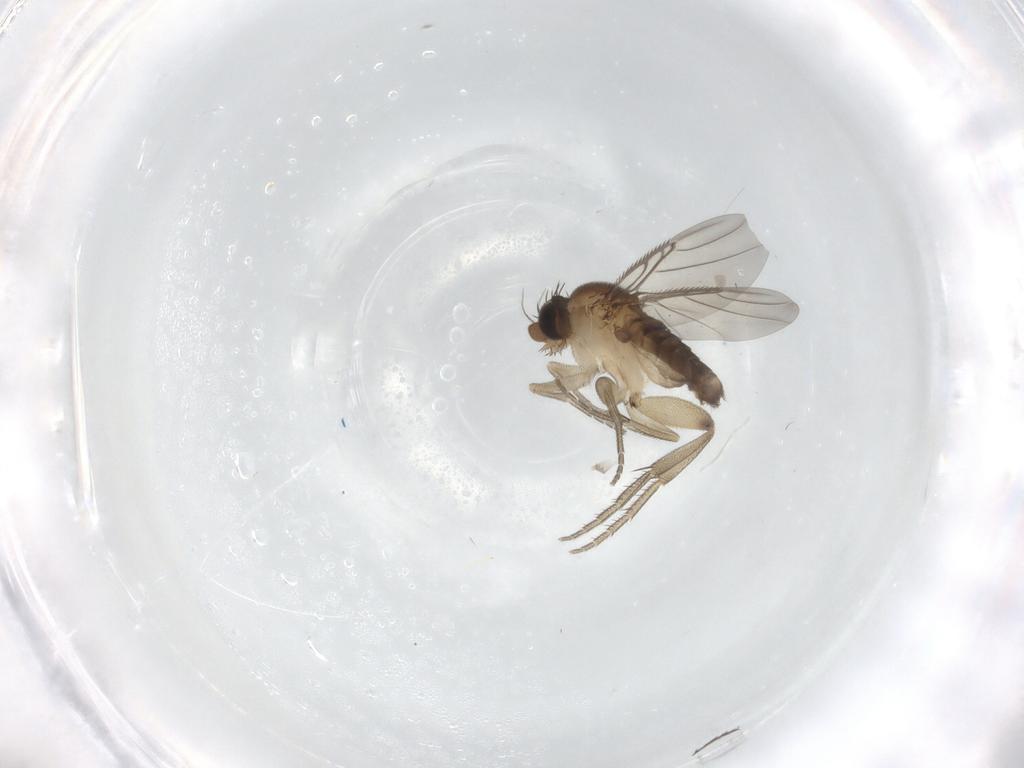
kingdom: Animalia
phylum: Arthropoda
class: Insecta
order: Diptera
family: Phoridae
